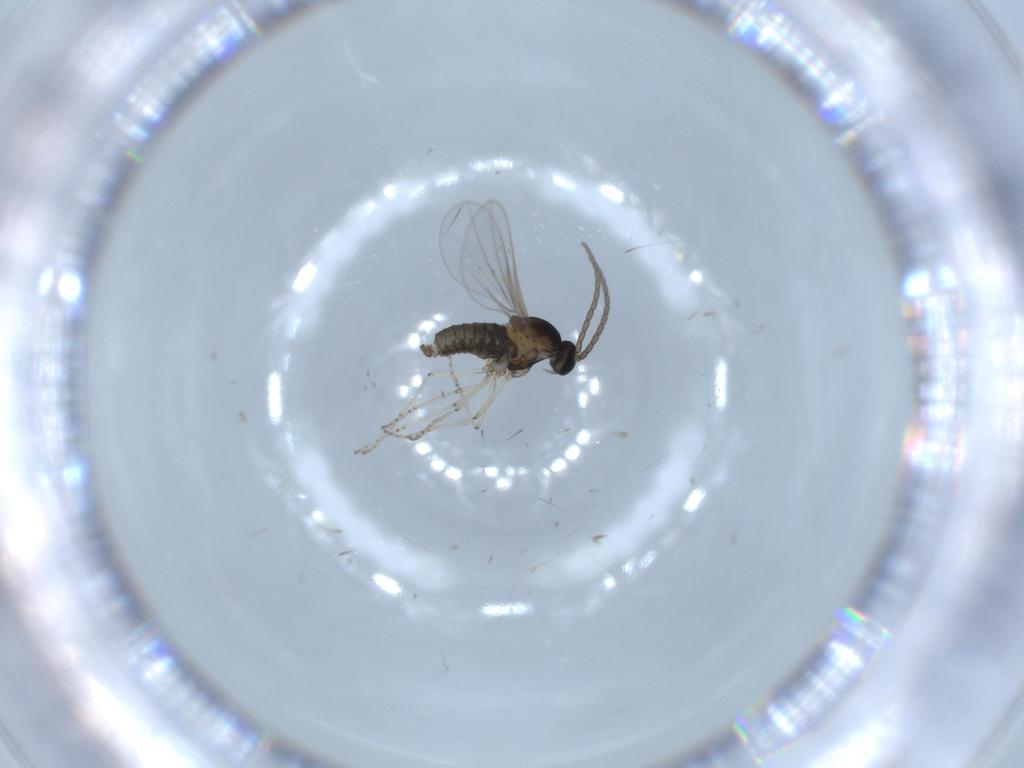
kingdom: Animalia
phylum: Arthropoda
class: Insecta
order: Diptera
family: Cecidomyiidae
